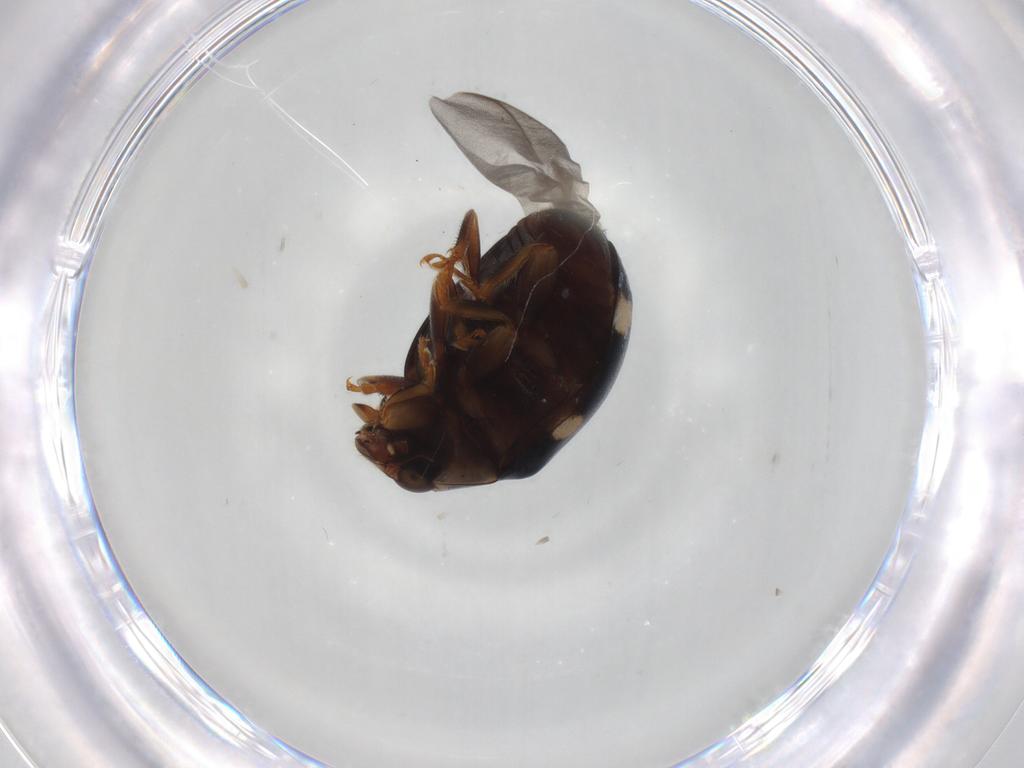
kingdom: Animalia
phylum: Arthropoda
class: Insecta
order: Coleoptera
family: Coccinellidae
